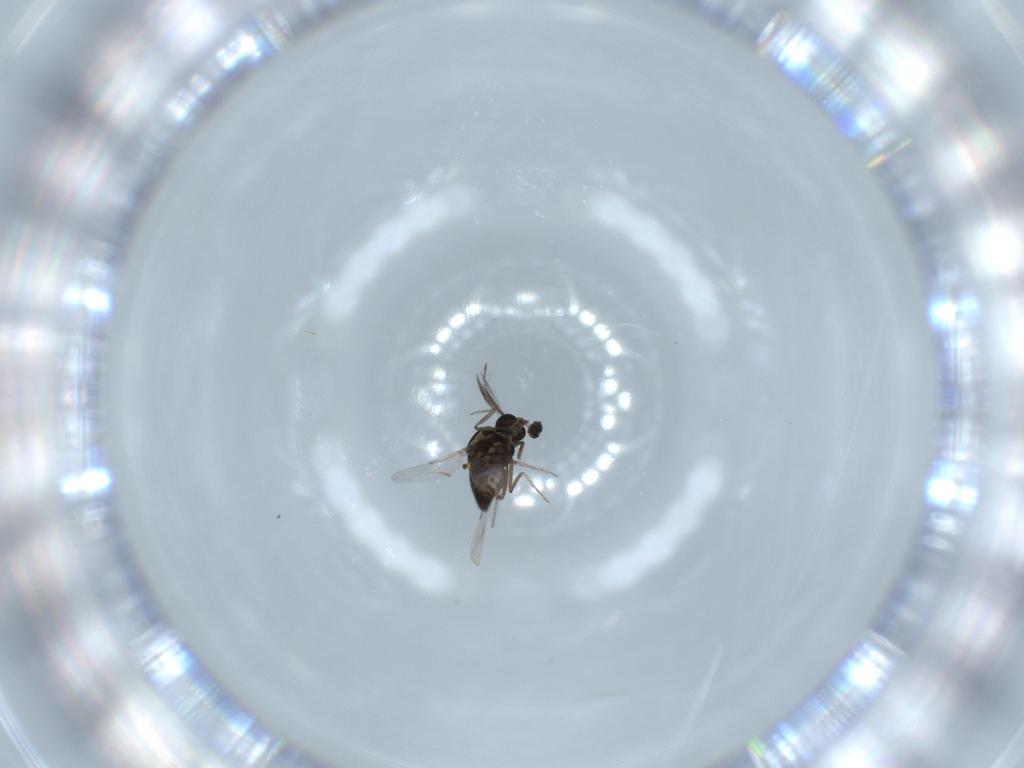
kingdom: Animalia
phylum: Arthropoda
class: Insecta
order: Diptera
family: Ceratopogonidae
